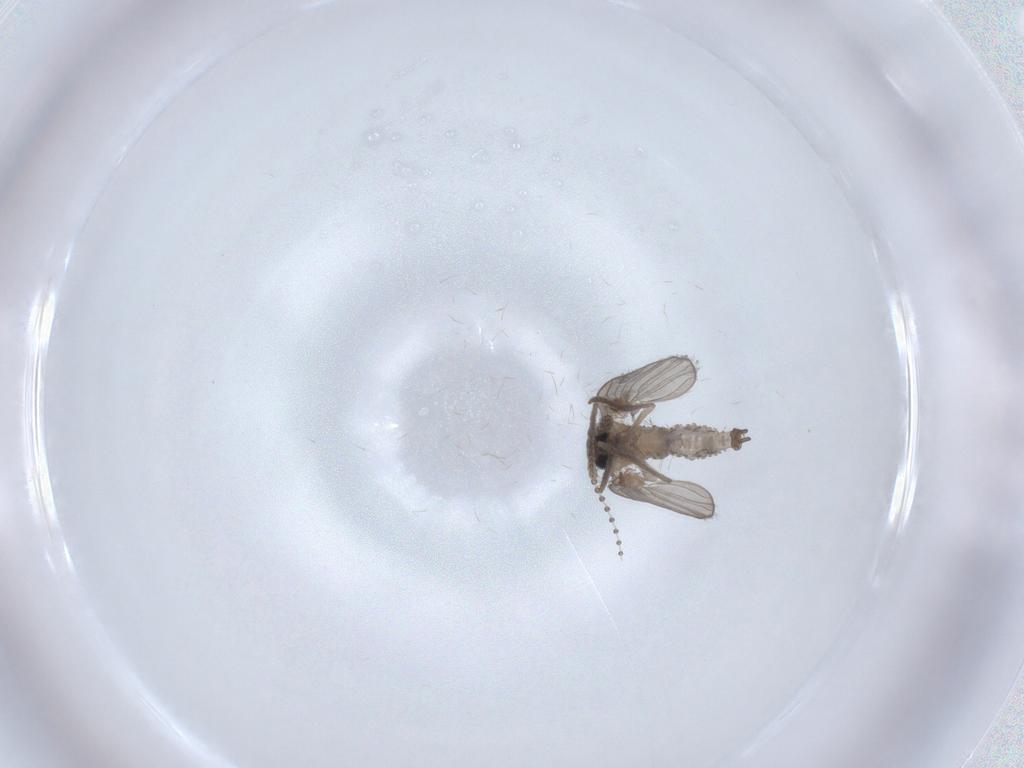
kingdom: Animalia
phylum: Arthropoda
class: Insecta
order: Diptera
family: Psychodidae
